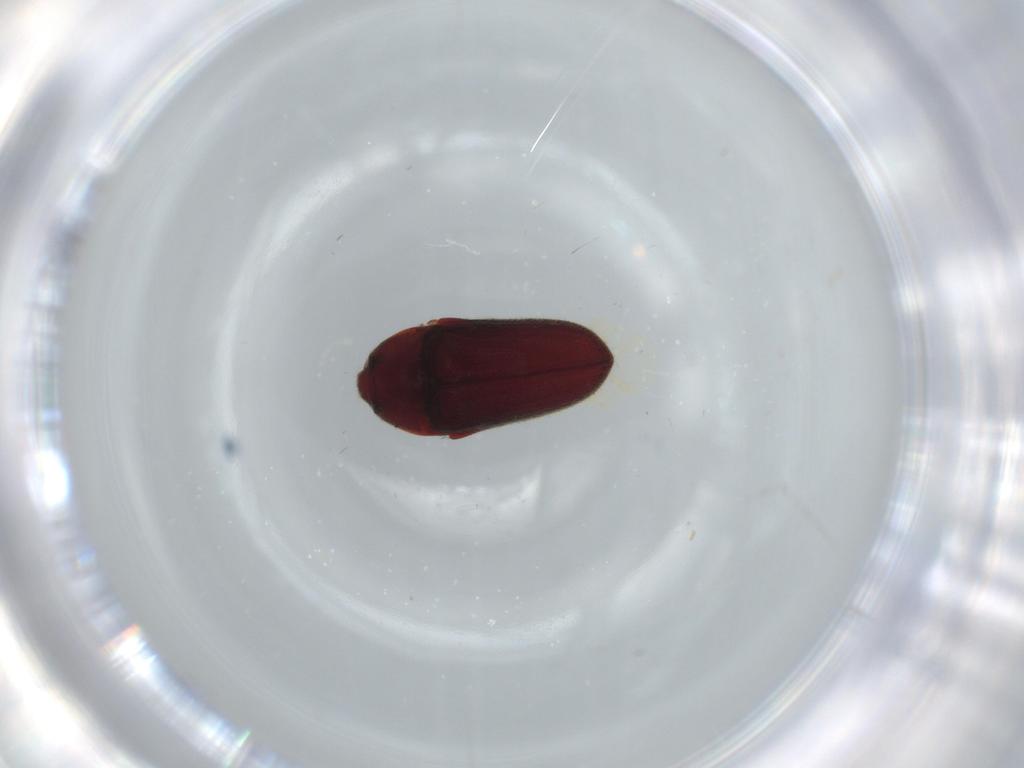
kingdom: Animalia
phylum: Arthropoda
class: Insecta
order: Coleoptera
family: Throscidae
